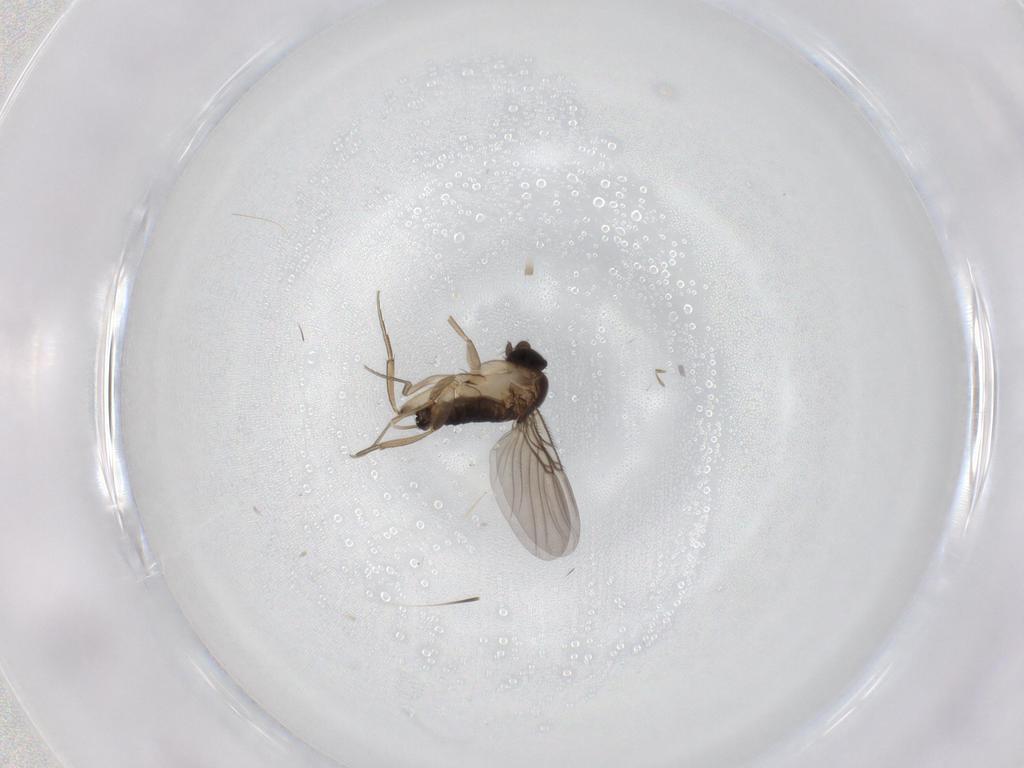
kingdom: Animalia
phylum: Arthropoda
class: Insecta
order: Diptera
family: Phoridae
